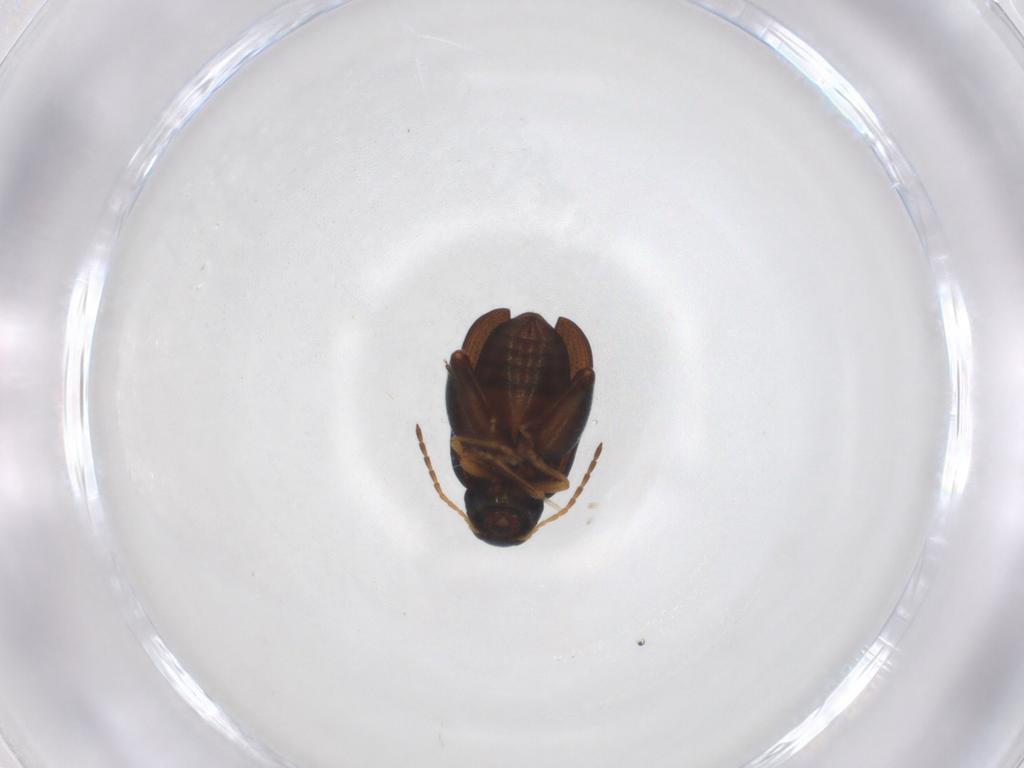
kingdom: Animalia
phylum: Arthropoda
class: Insecta
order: Coleoptera
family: Chrysomelidae
